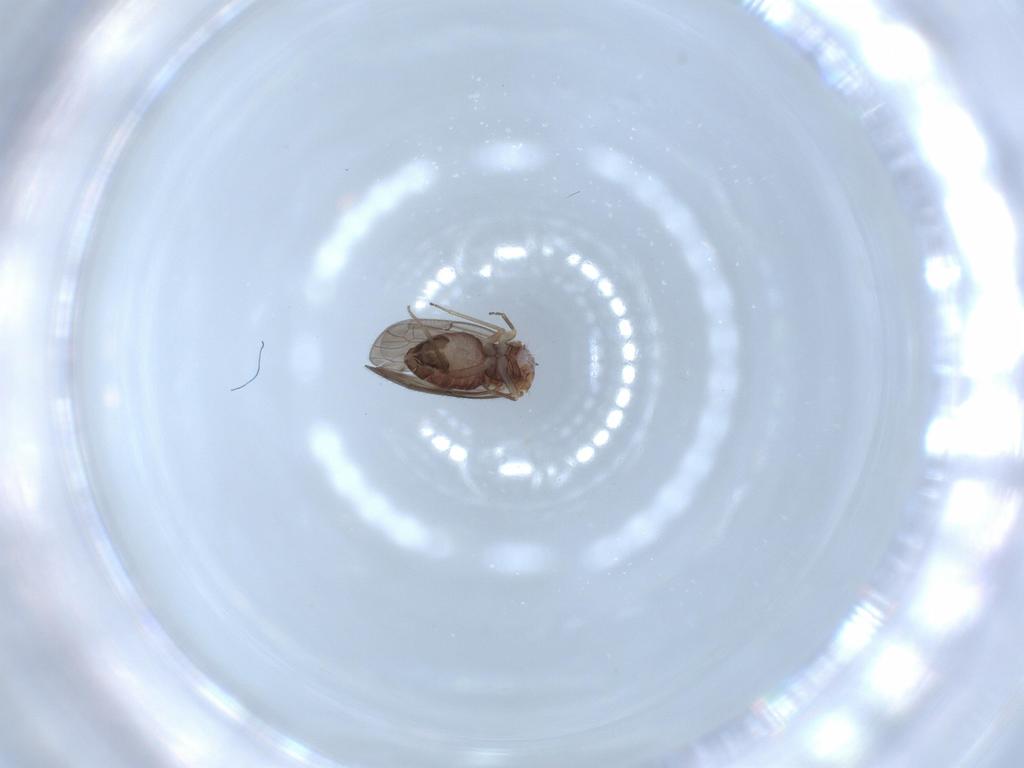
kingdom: Animalia
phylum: Arthropoda
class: Insecta
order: Psocodea
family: Ectopsocidae
